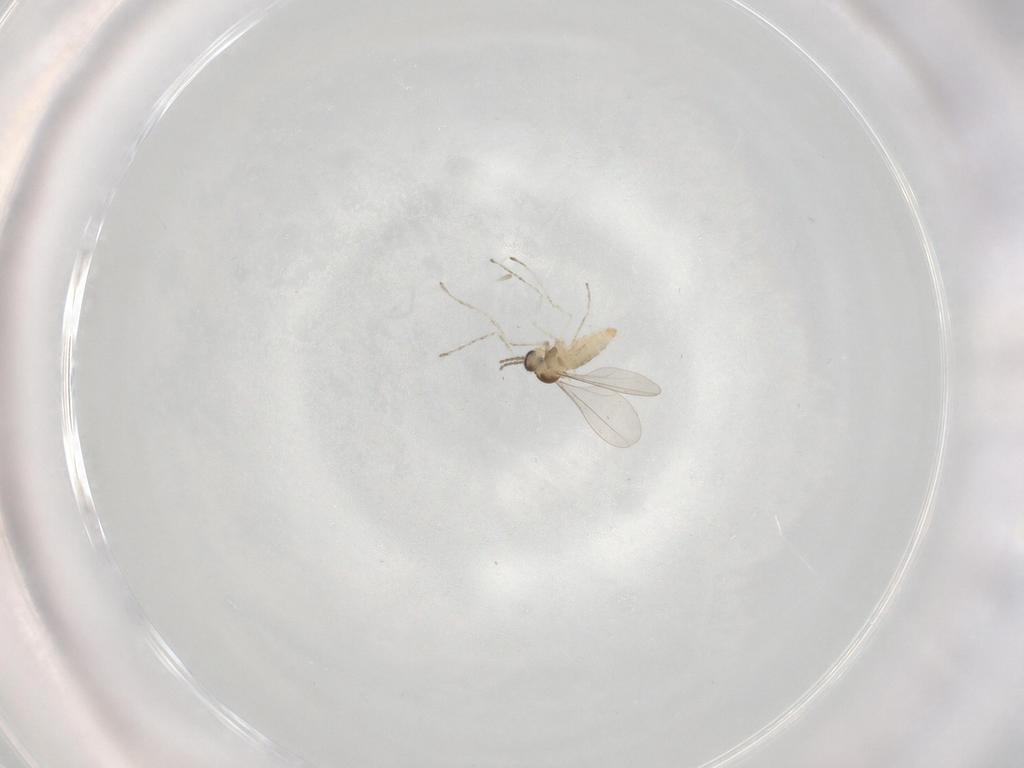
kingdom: Animalia
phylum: Arthropoda
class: Insecta
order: Diptera
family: Cecidomyiidae
